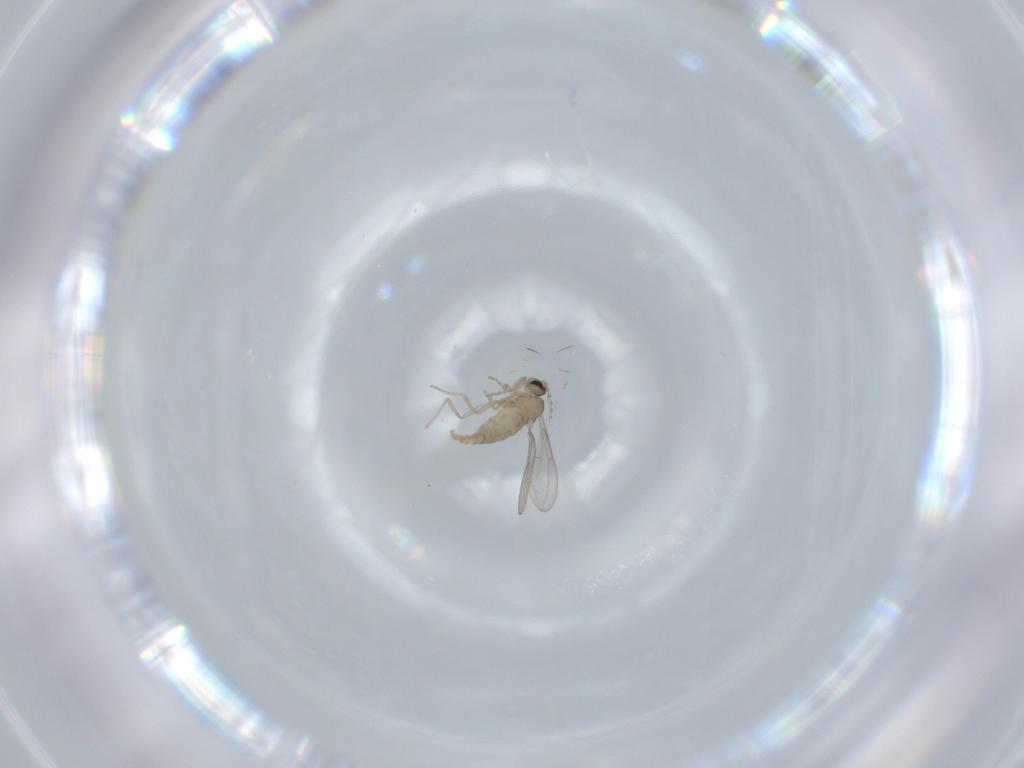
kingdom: Animalia
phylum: Arthropoda
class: Insecta
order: Diptera
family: Cecidomyiidae
